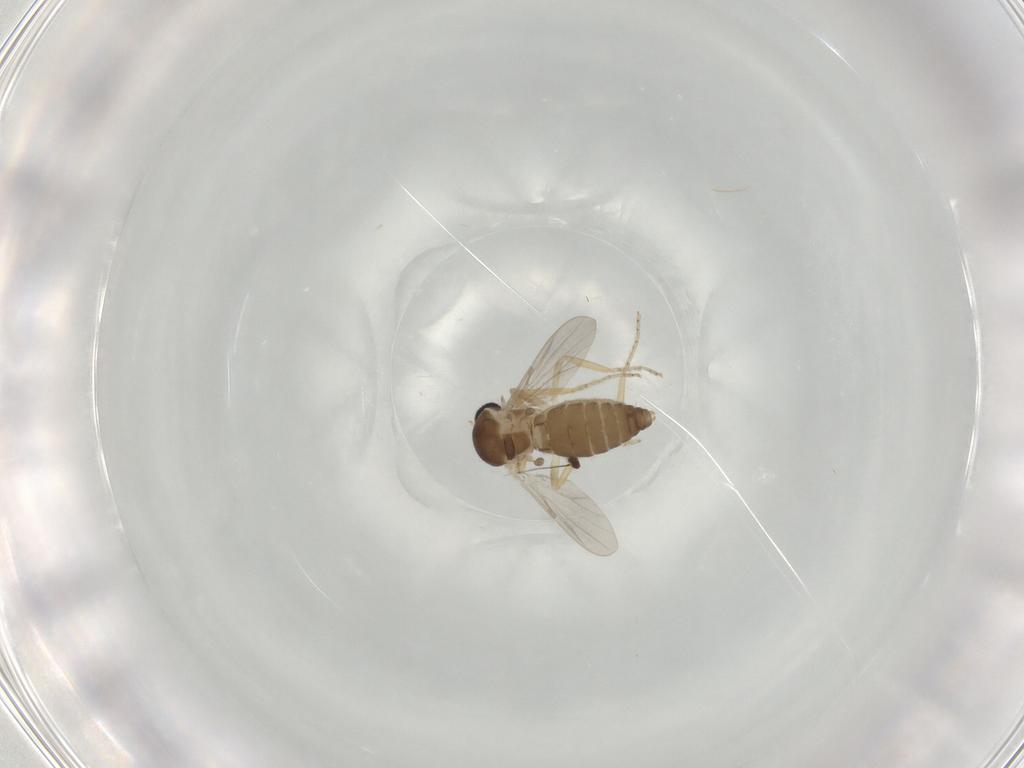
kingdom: Animalia
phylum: Arthropoda
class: Insecta
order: Diptera
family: Ceratopogonidae
